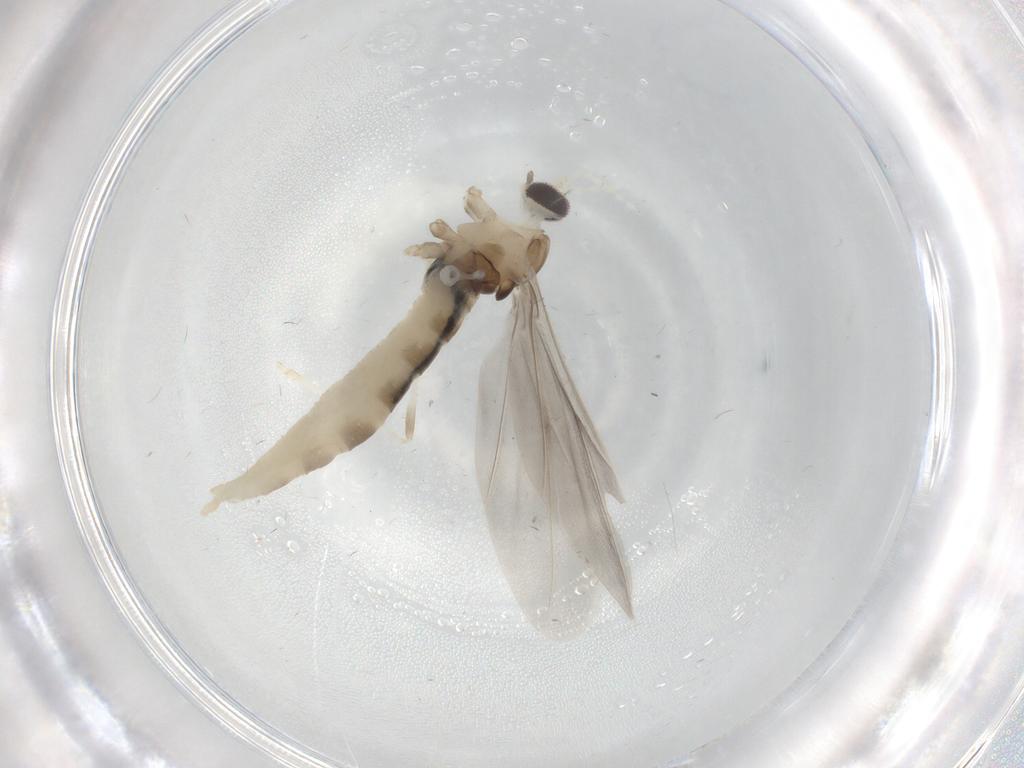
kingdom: Animalia
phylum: Arthropoda
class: Insecta
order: Diptera
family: Cecidomyiidae
